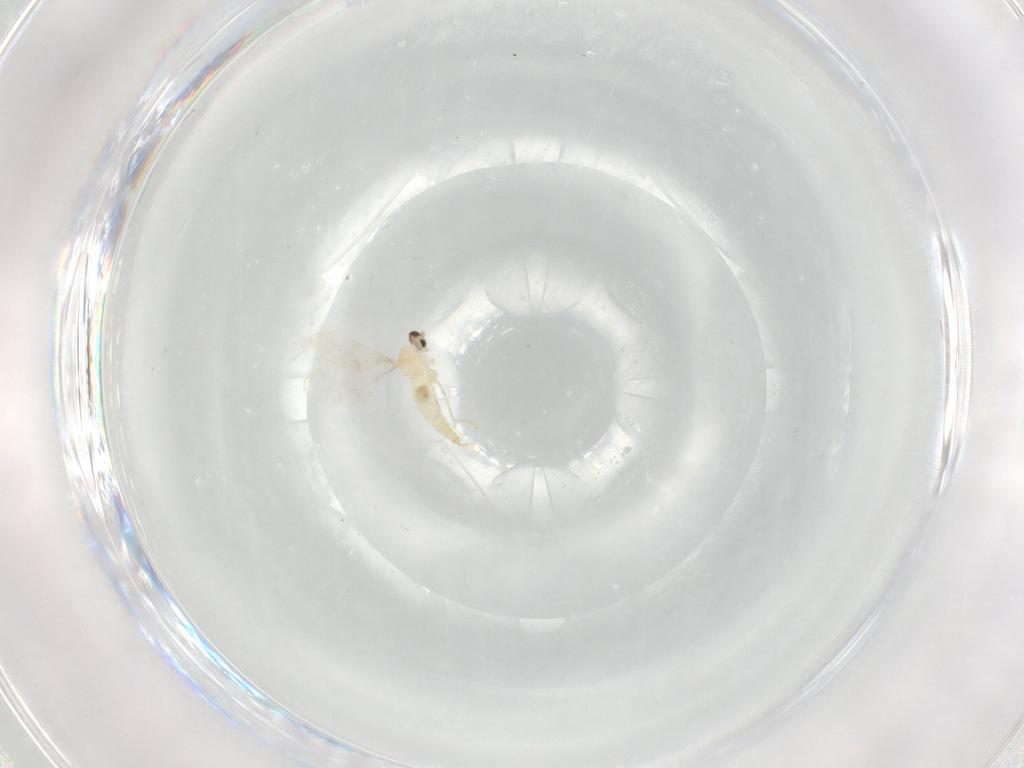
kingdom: Animalia
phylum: Arthropoda
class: Insecta
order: Diptera
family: Cecidomyiidae
